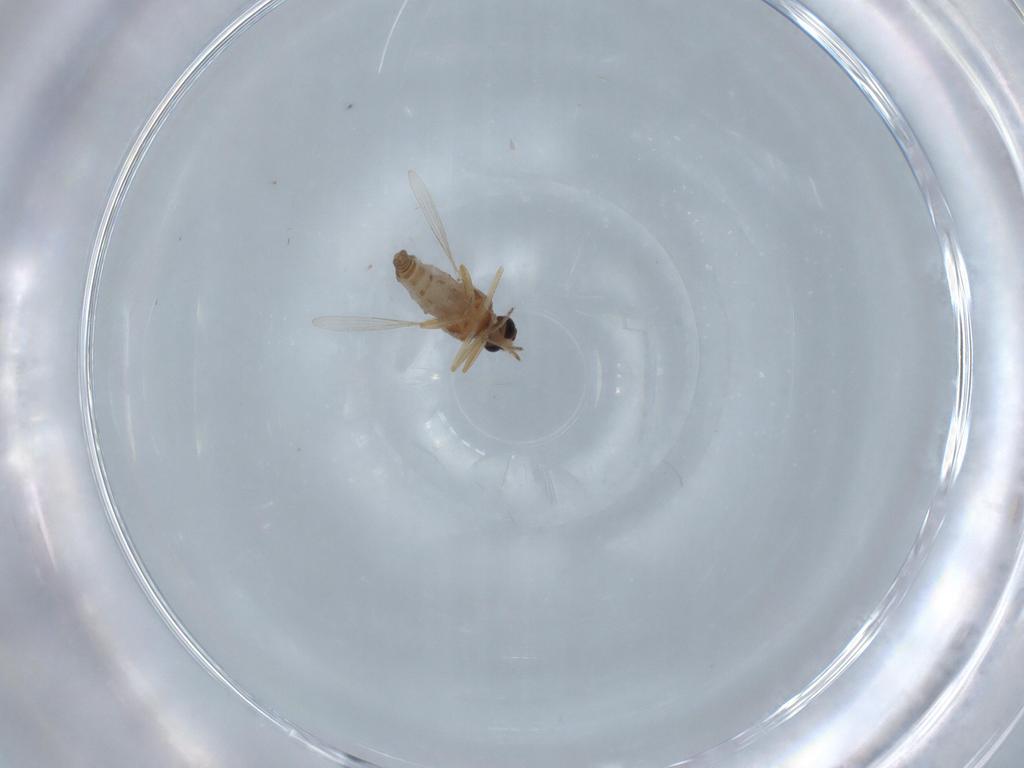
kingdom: Animalia
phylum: Arthropoda
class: Insecta
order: Diptera
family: Ceratopogonidae
